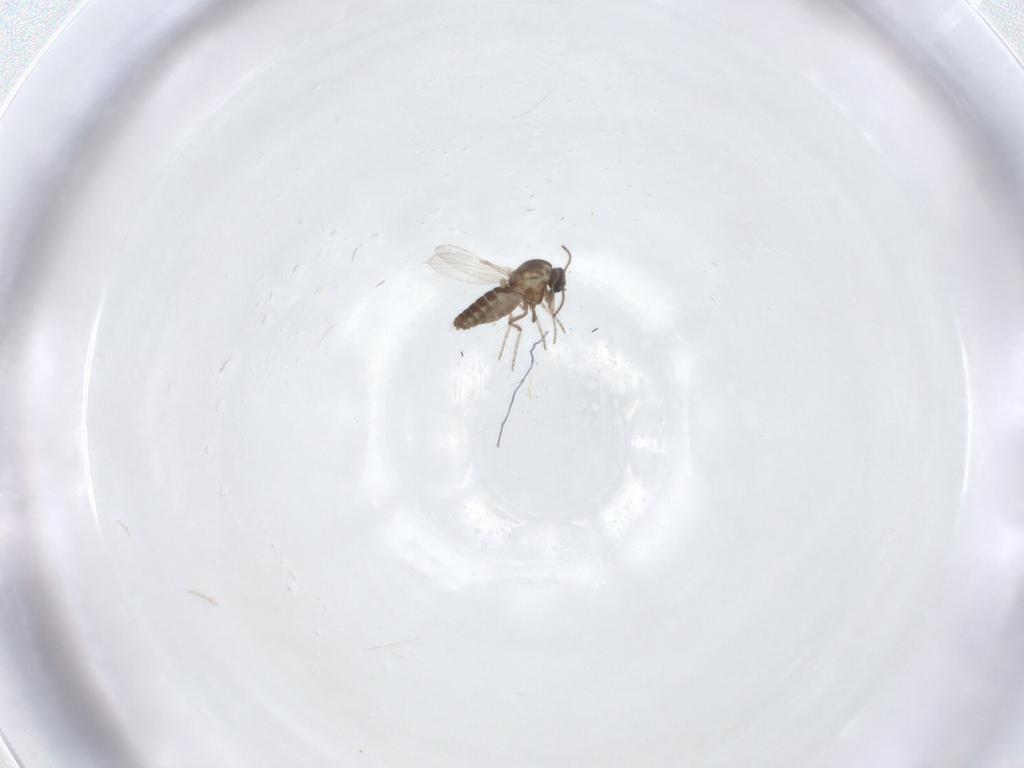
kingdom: Animalia
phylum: Arthropoda
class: Insecta
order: Diptera
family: Ceratopogonidae
